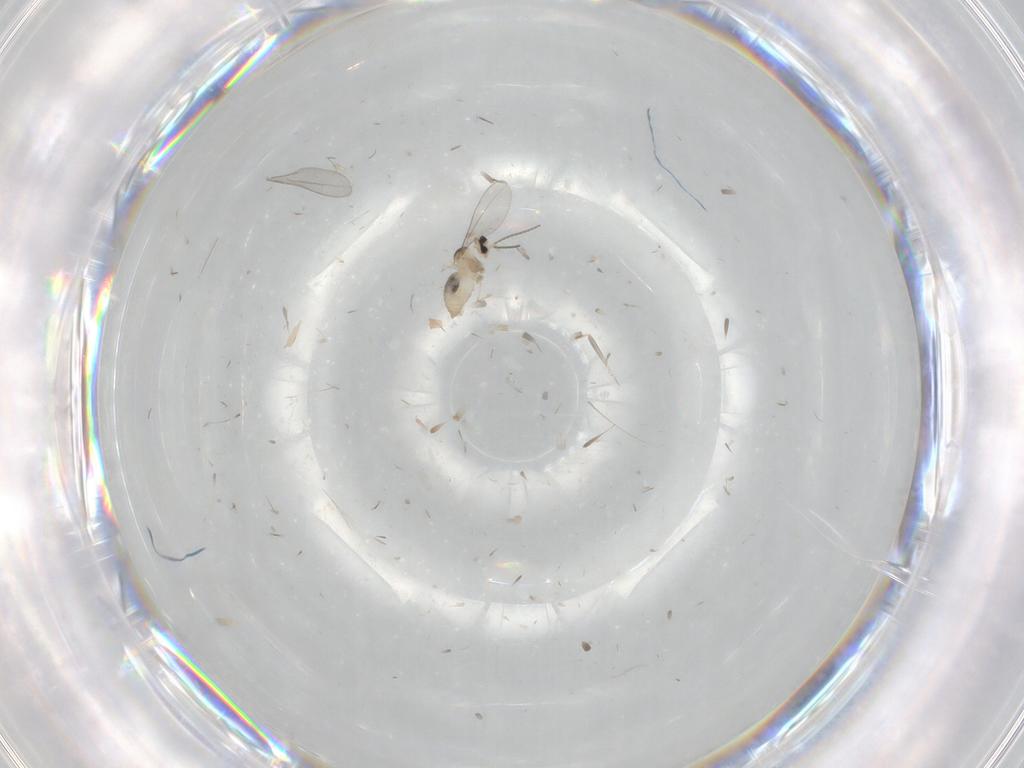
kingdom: Animalia
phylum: Arthropoda
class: Insecta
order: Diptera
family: Cecidomyiidae
